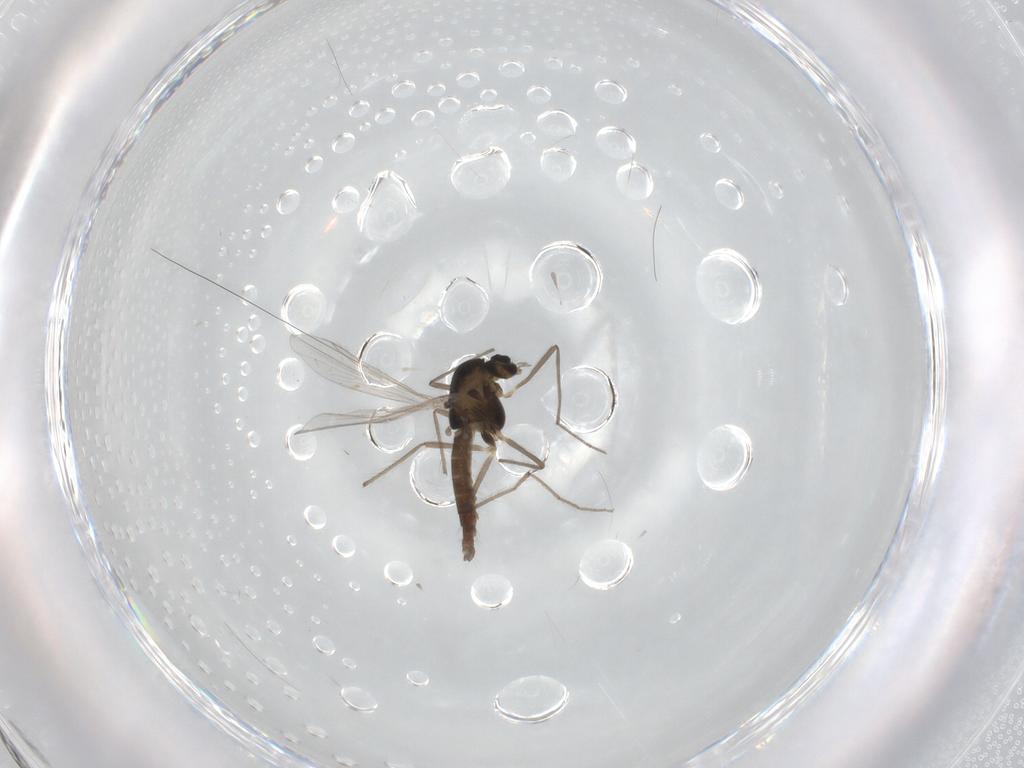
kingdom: Animalia
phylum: Arthropoda
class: Insecta
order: Diptera
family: Chironomidae
